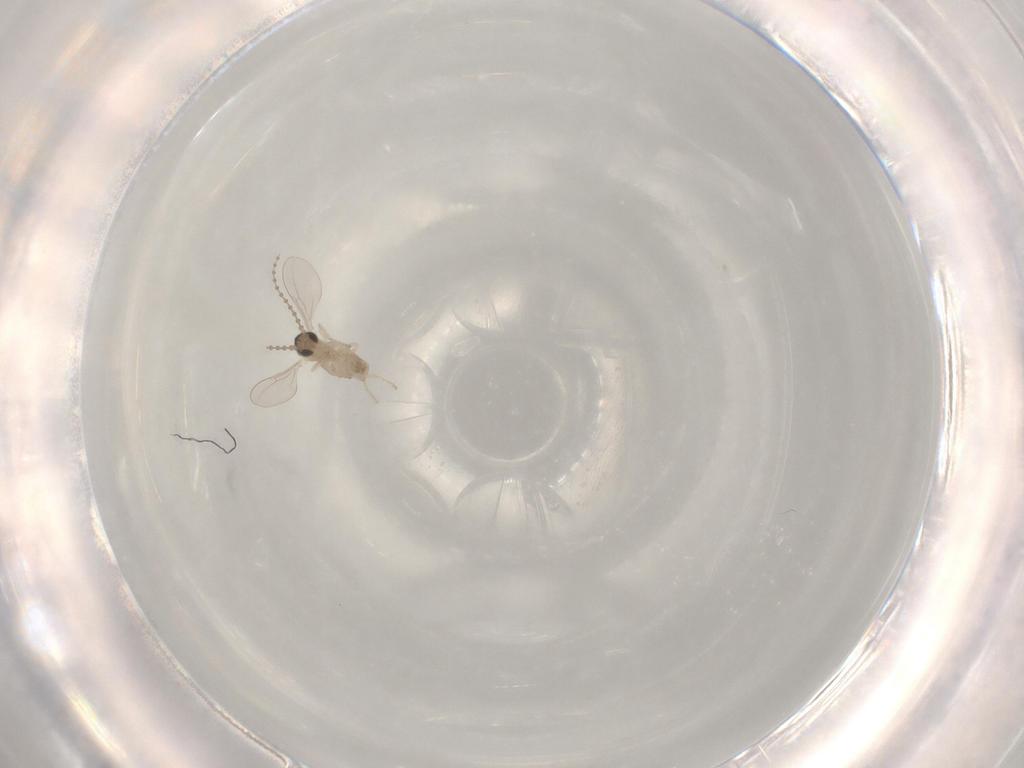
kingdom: Animalia
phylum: Arthropoda
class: Insecta
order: Diptera
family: Cecidomyiidae
